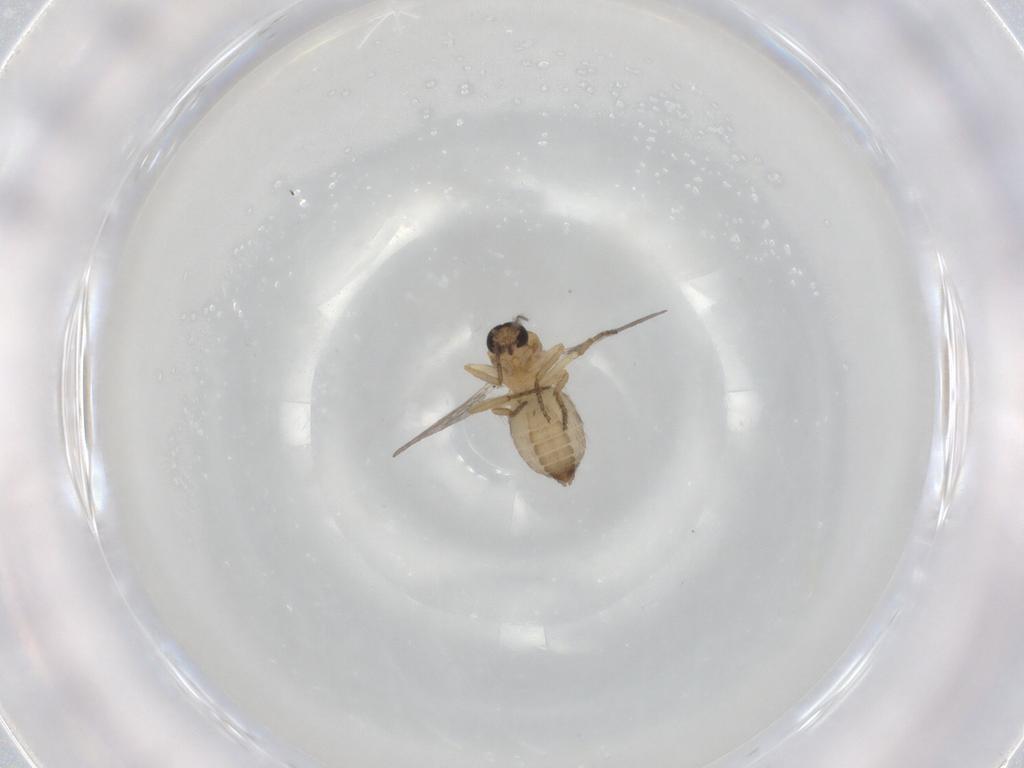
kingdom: Animalia
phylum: Arthropoda
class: Insecta
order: Diptera
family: Ceratopogonidae
